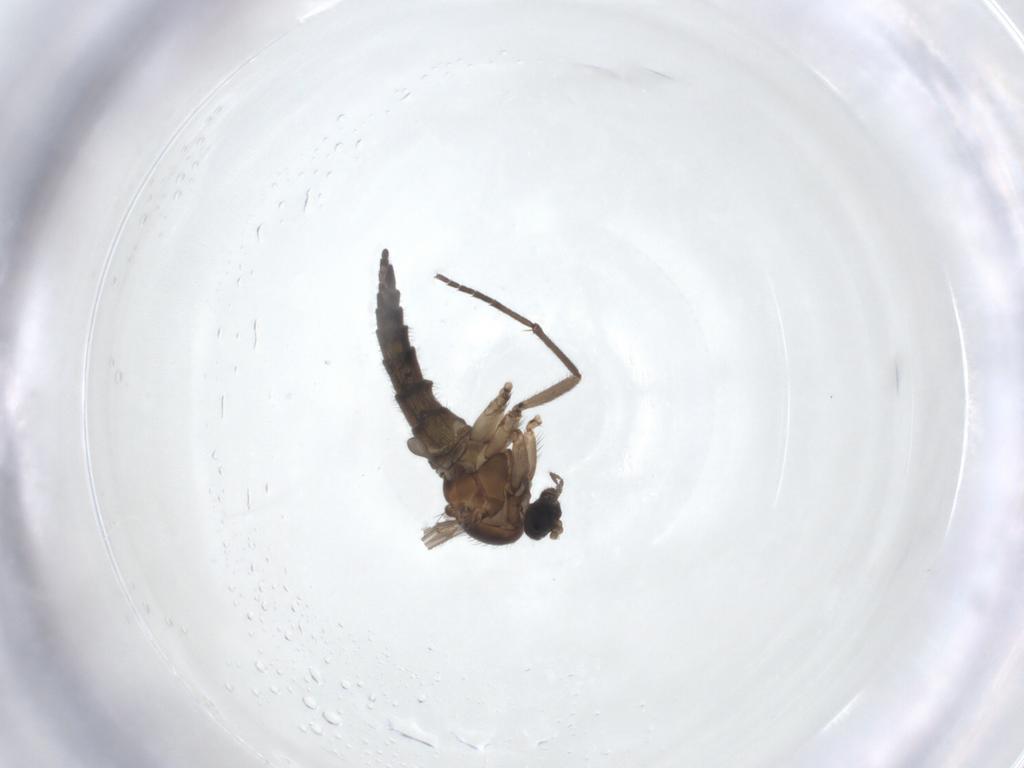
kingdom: Animalia
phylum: Arthropoda
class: Insecta
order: Diptera
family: Sciaridae
